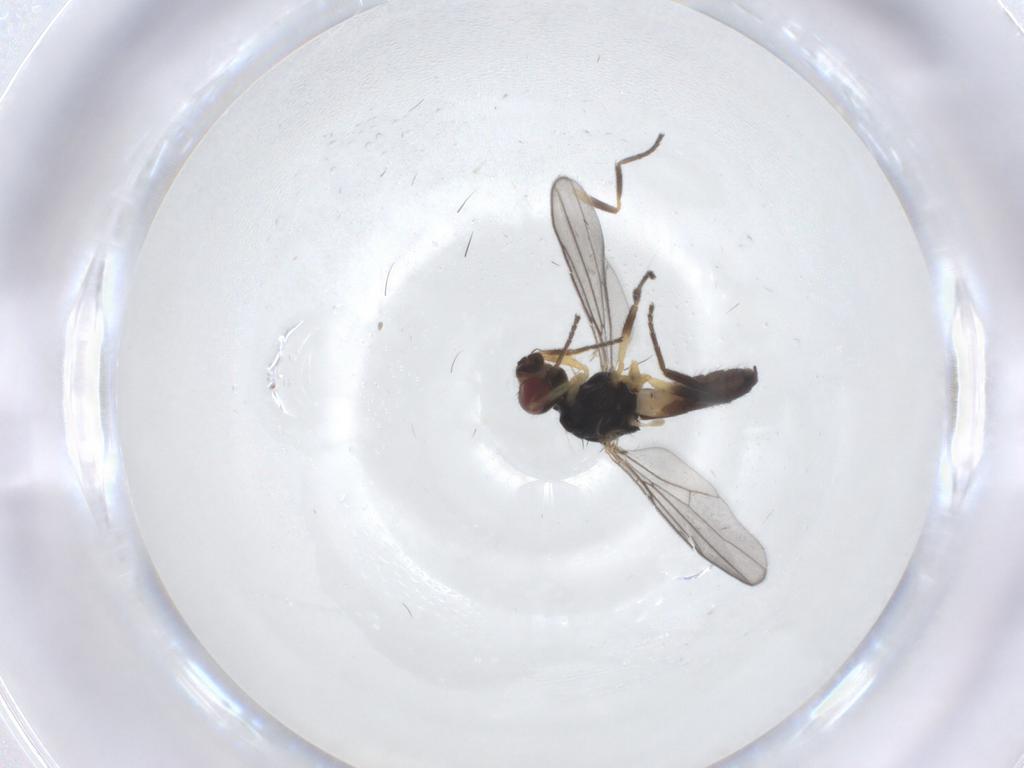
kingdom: Animalia
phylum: Arthropoda
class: Insecta
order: Diptera
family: Chloropidae
